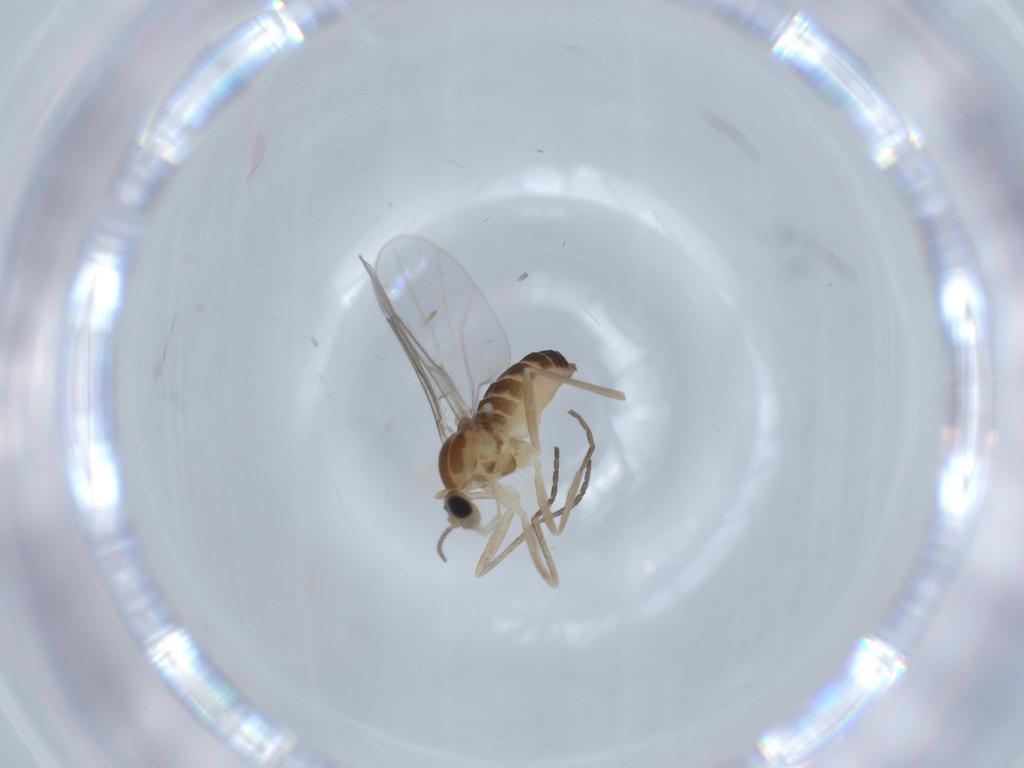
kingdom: Animalia
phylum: Arthropoda
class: Insecta
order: Diptera
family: Cecidomyiidae
